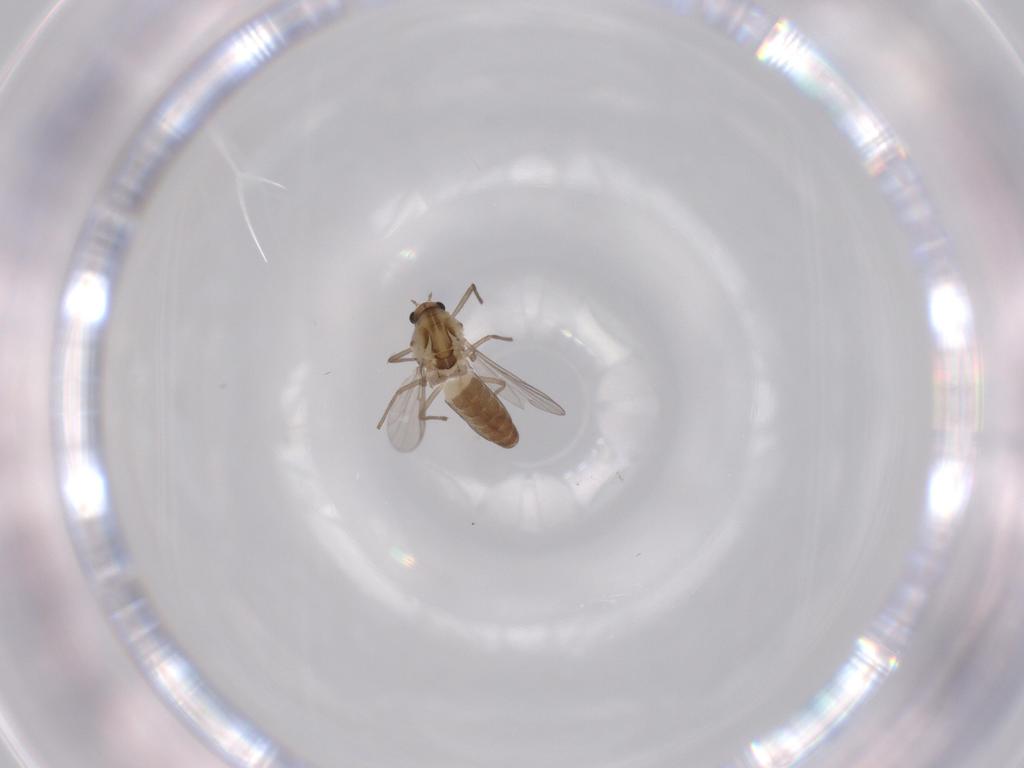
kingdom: Animalia
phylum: Arthropoda
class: Insecta
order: Diptera
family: Chironomidae
